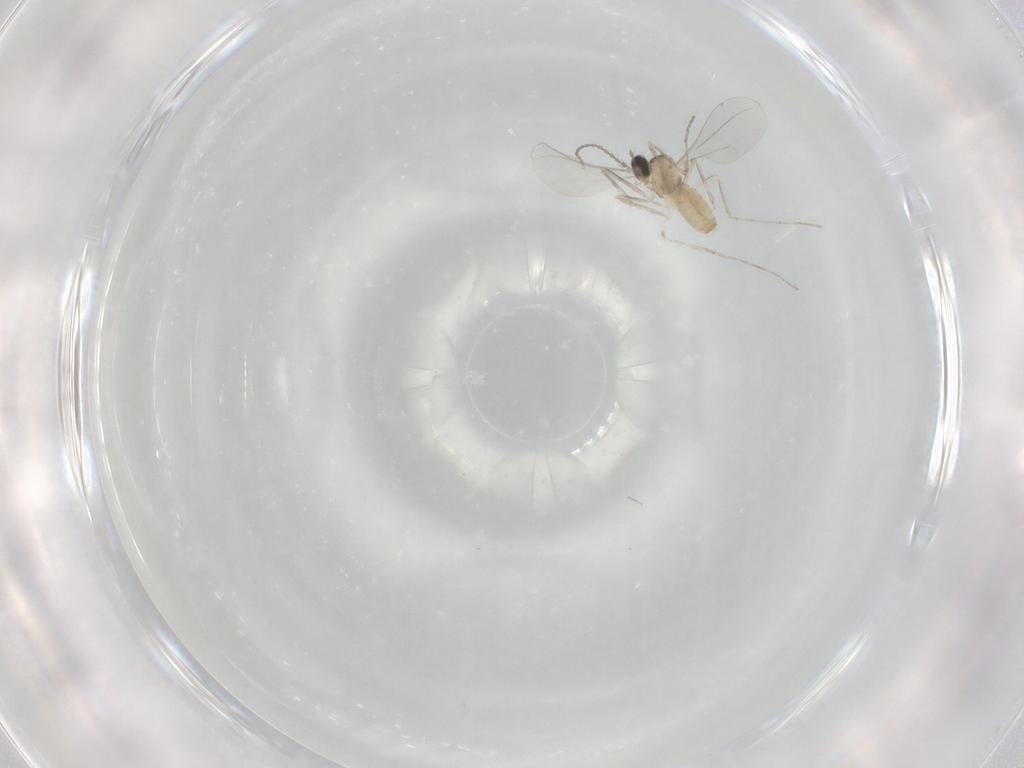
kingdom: Animalia
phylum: Arthropoda
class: Insecta
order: Diptera
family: Cecidomyiidae
